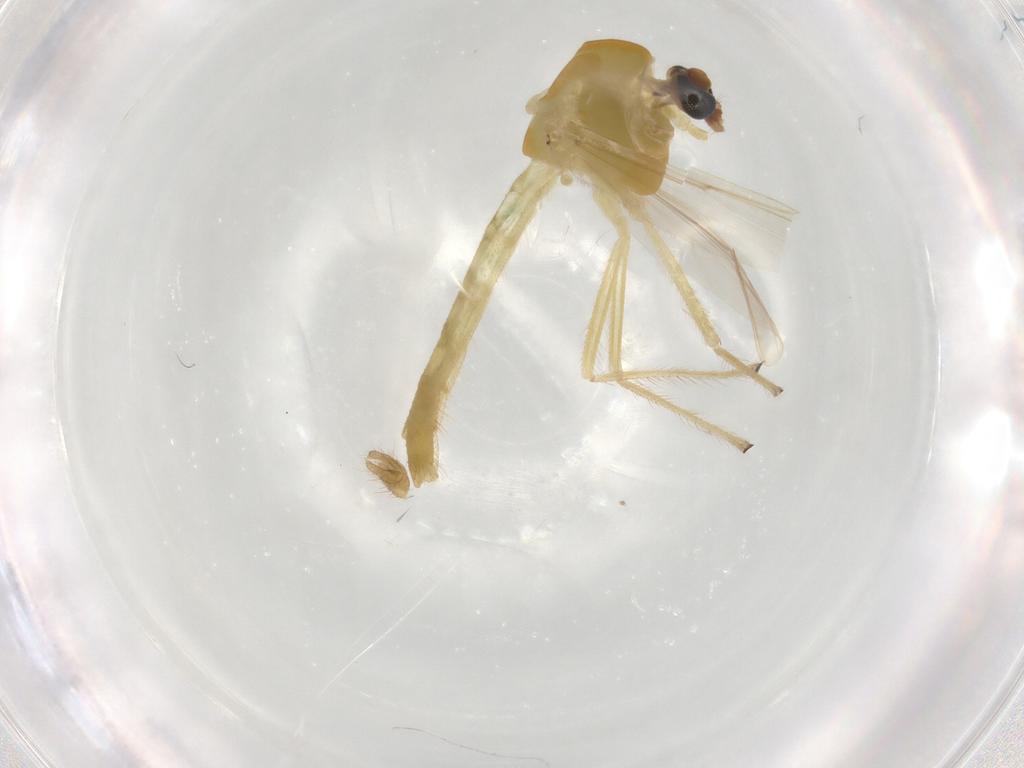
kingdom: Animalia
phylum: Arthropoda
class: Insecta
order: Diptera
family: Chironomidae
